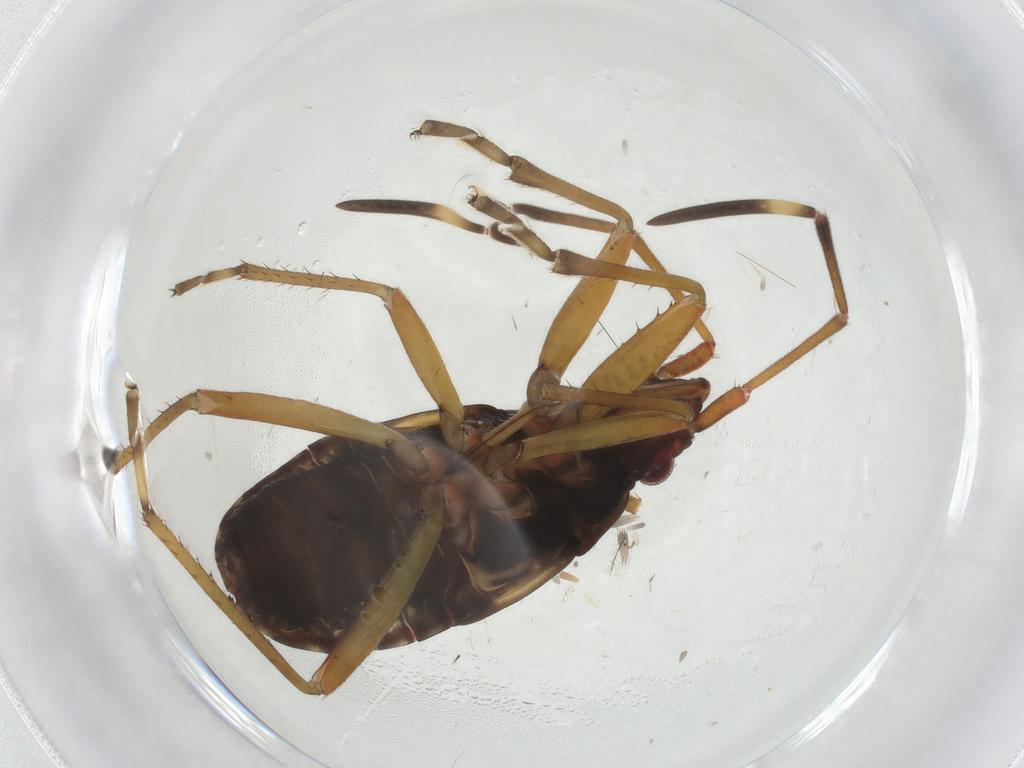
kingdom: Animalia
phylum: Arthropoda
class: Insecta
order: Hemiptera
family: Rhyparochromidae
